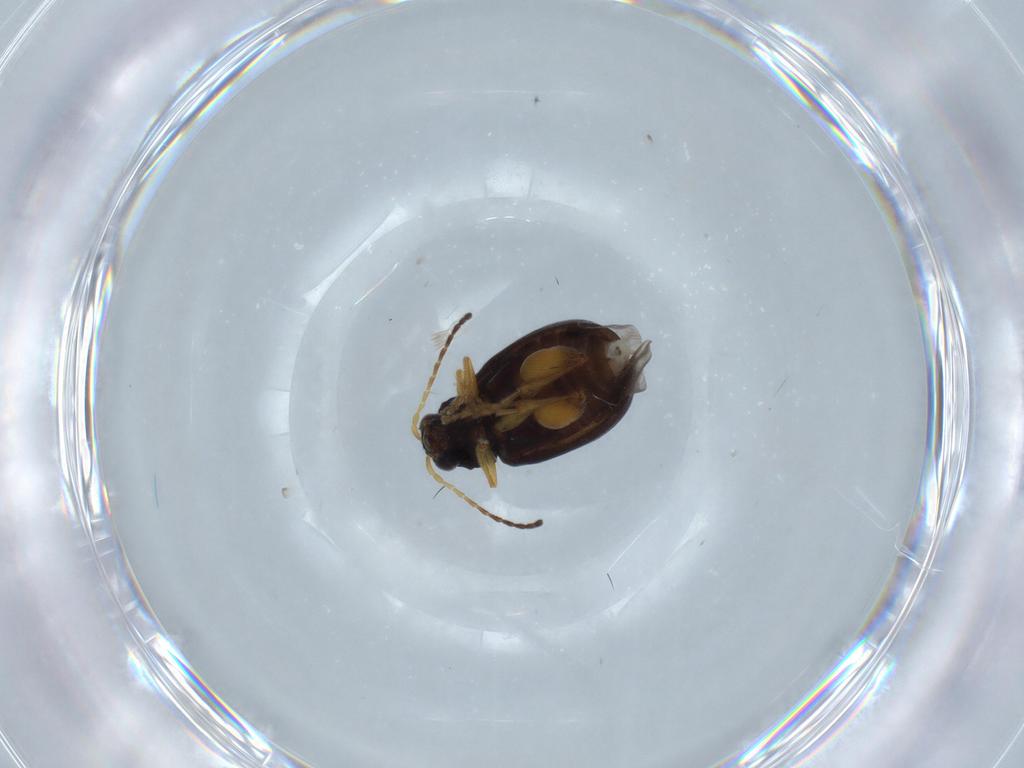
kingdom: Animalia
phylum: Arthropoda
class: Insecta
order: Coleoptera
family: Chrysomelidae
